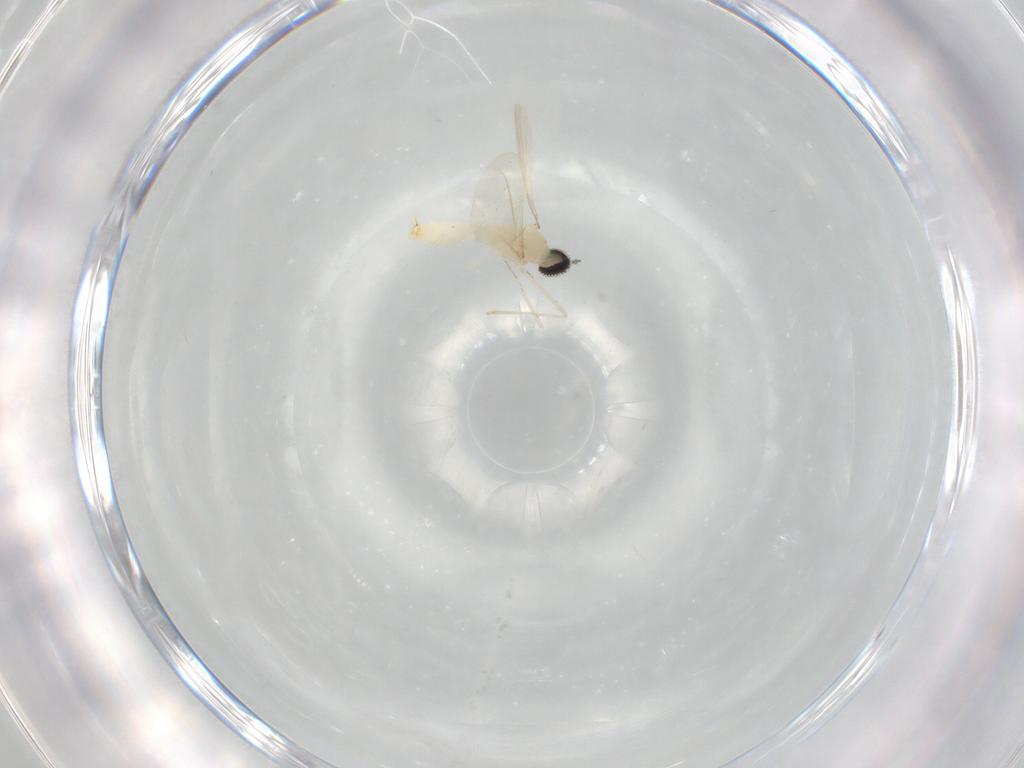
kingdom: Animalia
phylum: Arthropoda
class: Insecta
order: Diptera
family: Cecidomyiidae
